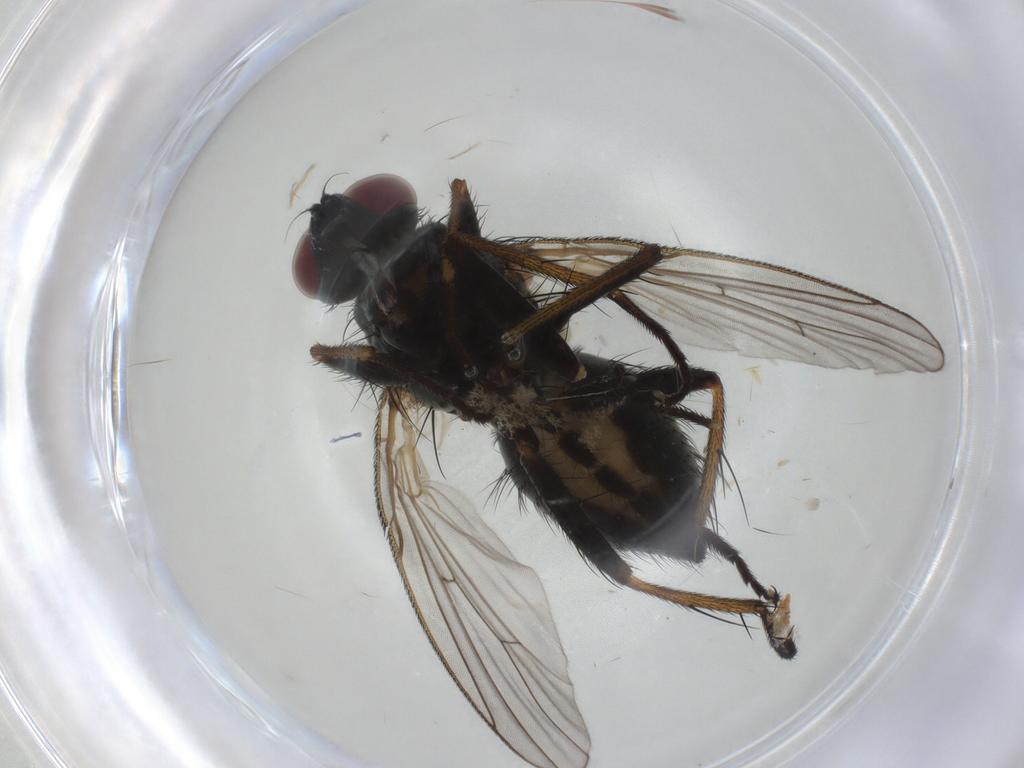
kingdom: Animalia
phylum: Arthropoda
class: Insecta
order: Diptera
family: Chironomidae
